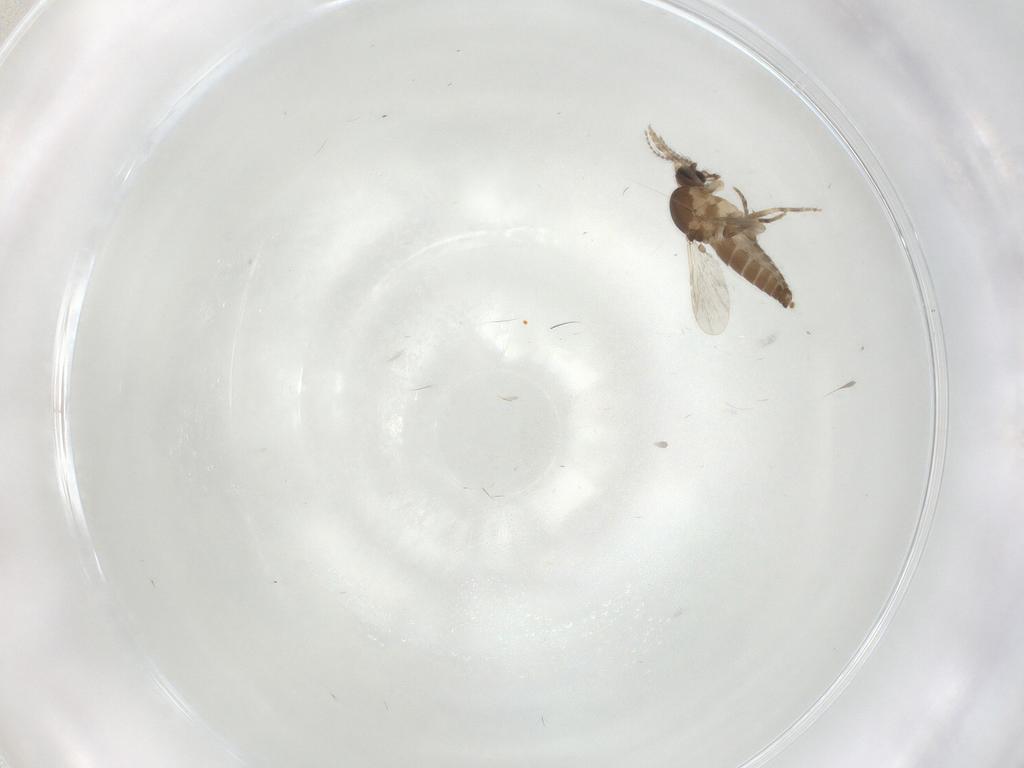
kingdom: Animalia
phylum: Arthropoda
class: Insecta
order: Diptera
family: Ceratopogonidae
